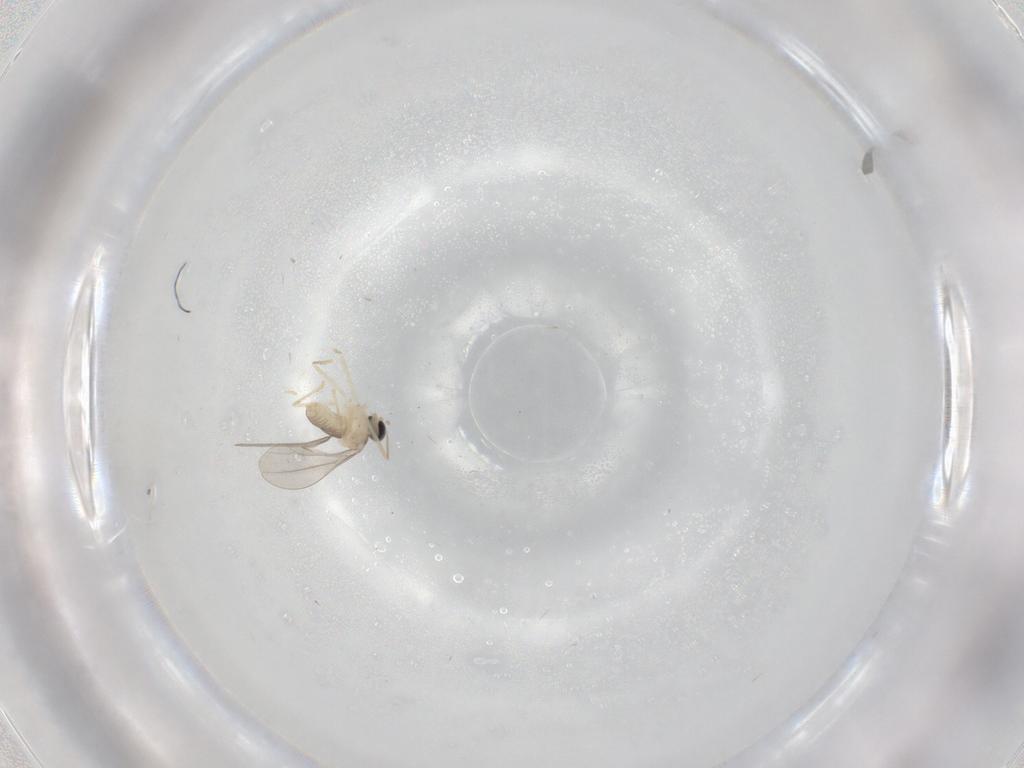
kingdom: Animalia
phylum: Arthropoda
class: Insecta
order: Diptera
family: Cecidomyiidae
